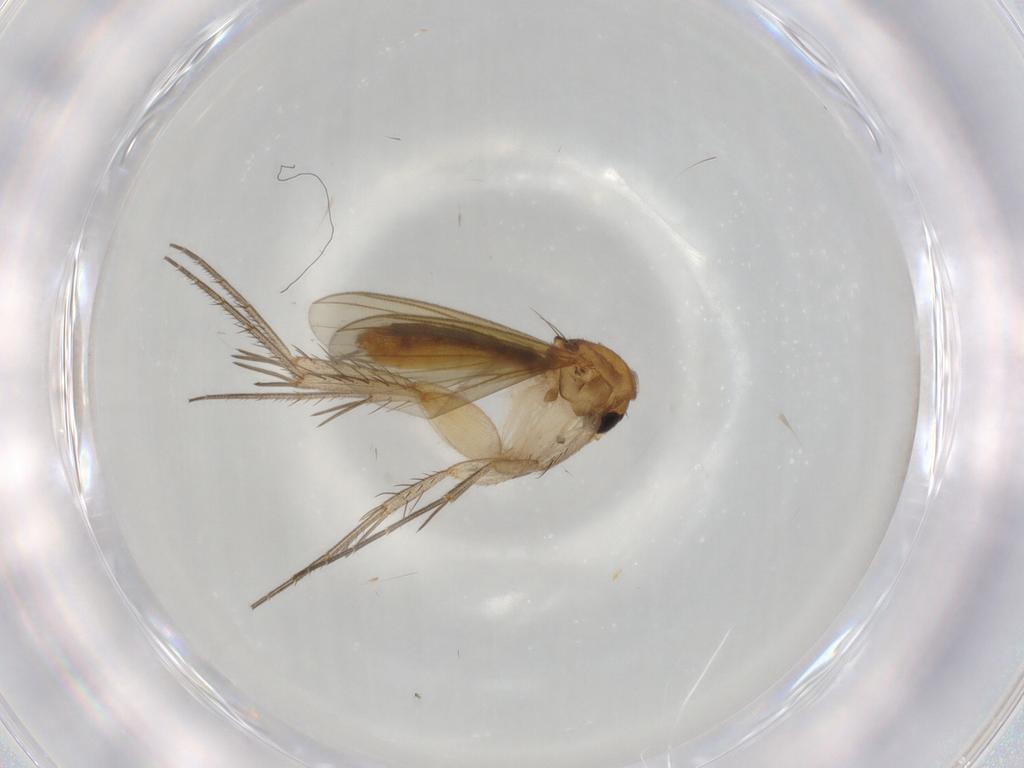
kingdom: Animalia
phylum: Arthropoda
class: Insecta
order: Diptera
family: Mycetophilidae
